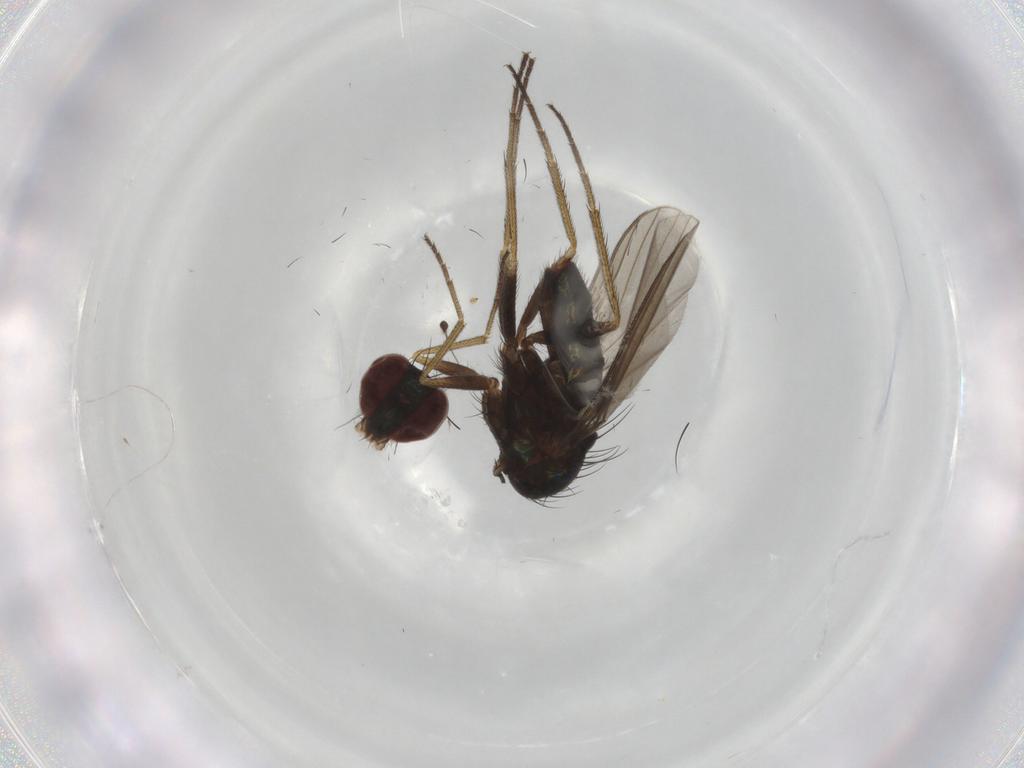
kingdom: Animalia
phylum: Arthropoda
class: Insecta
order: Diptera
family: Dolichopodidae
